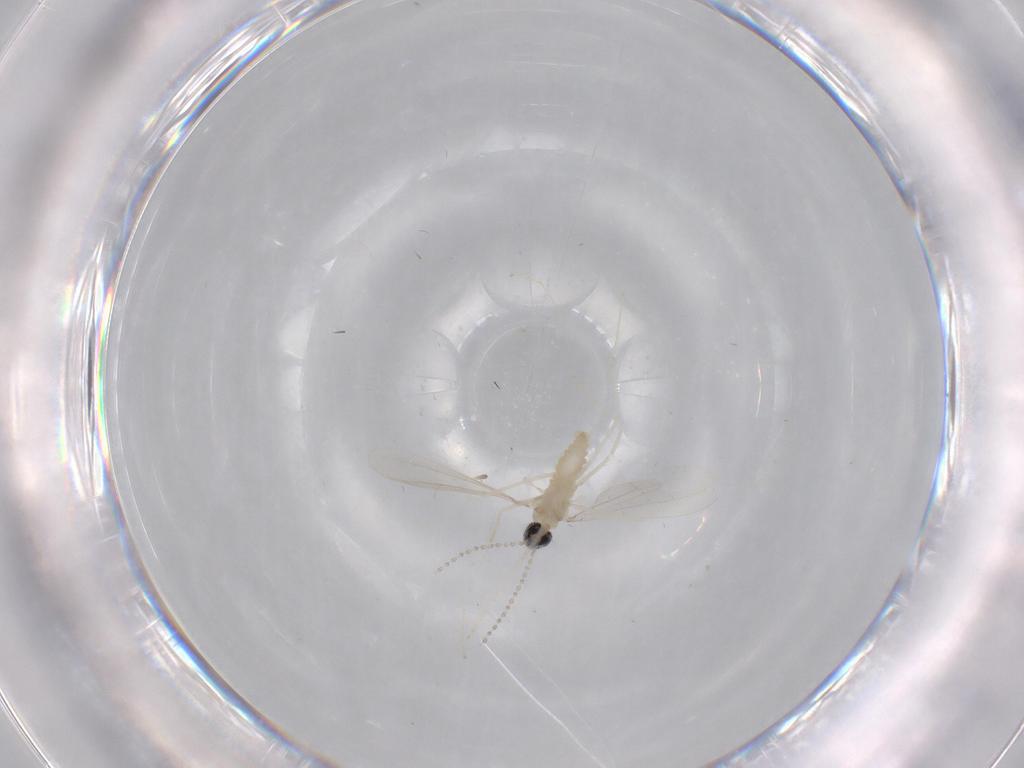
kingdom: Animalia
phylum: Arthropoda
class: Insecta
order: Diptera
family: Cecidomyiidae
